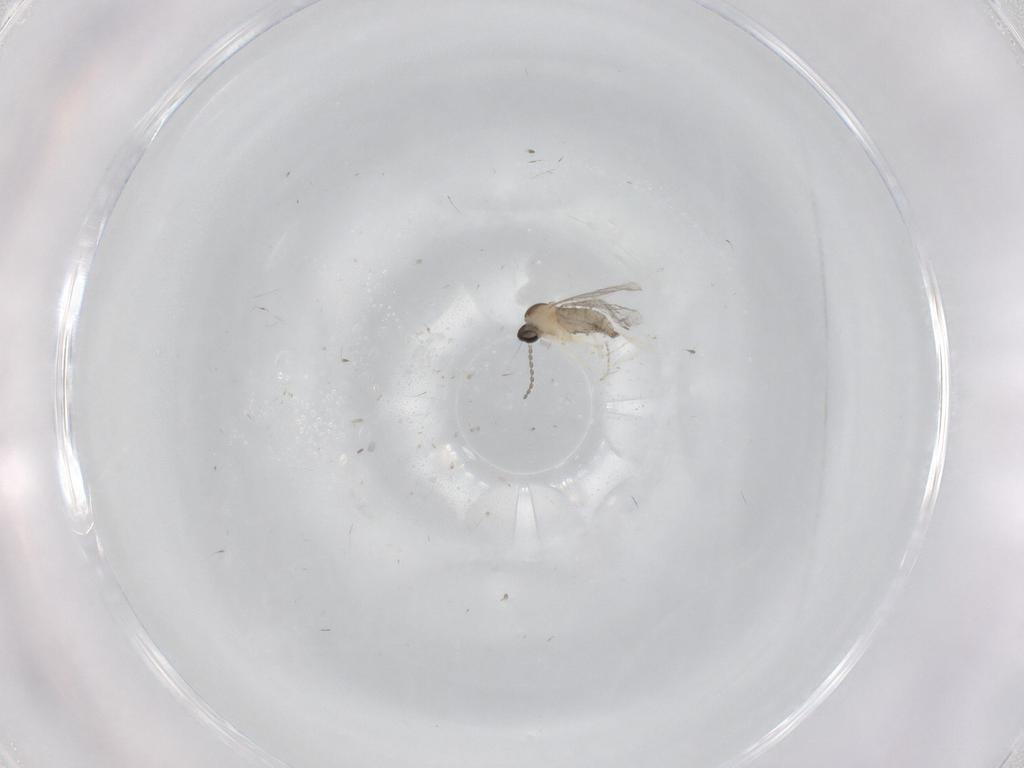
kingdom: Animalia
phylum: Arthropoda
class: Insecta
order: Diptera
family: Cecidomyiidae
